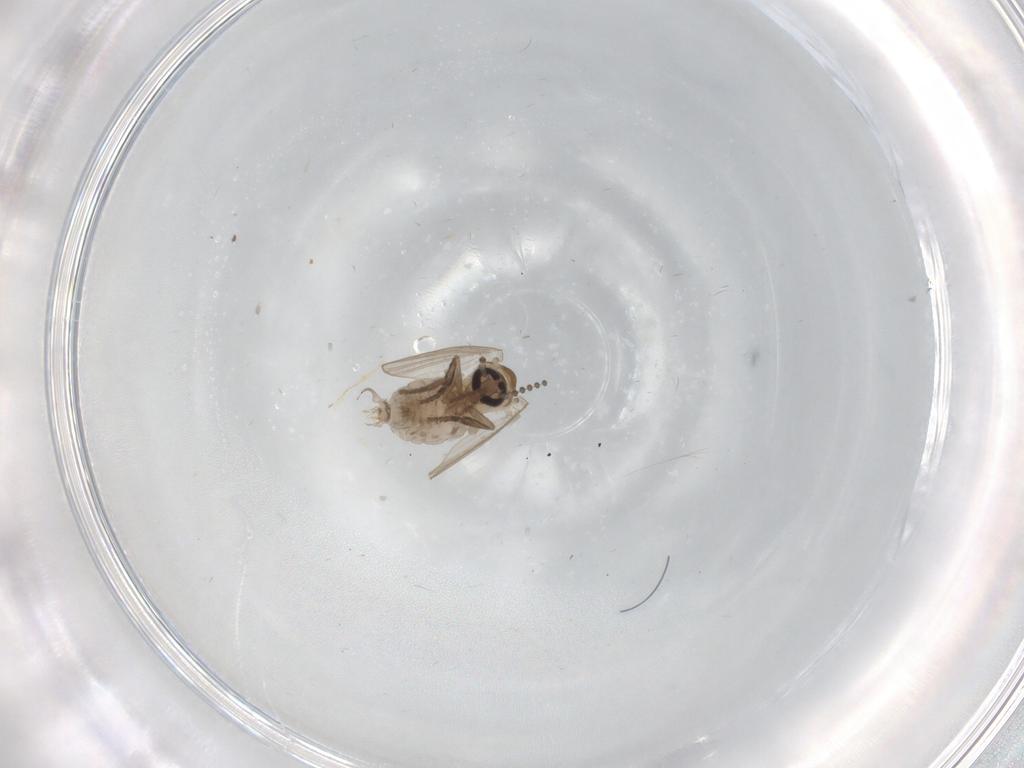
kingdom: Animalia
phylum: Arthropoda
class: Insecta
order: Diptera
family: Psychodidae
